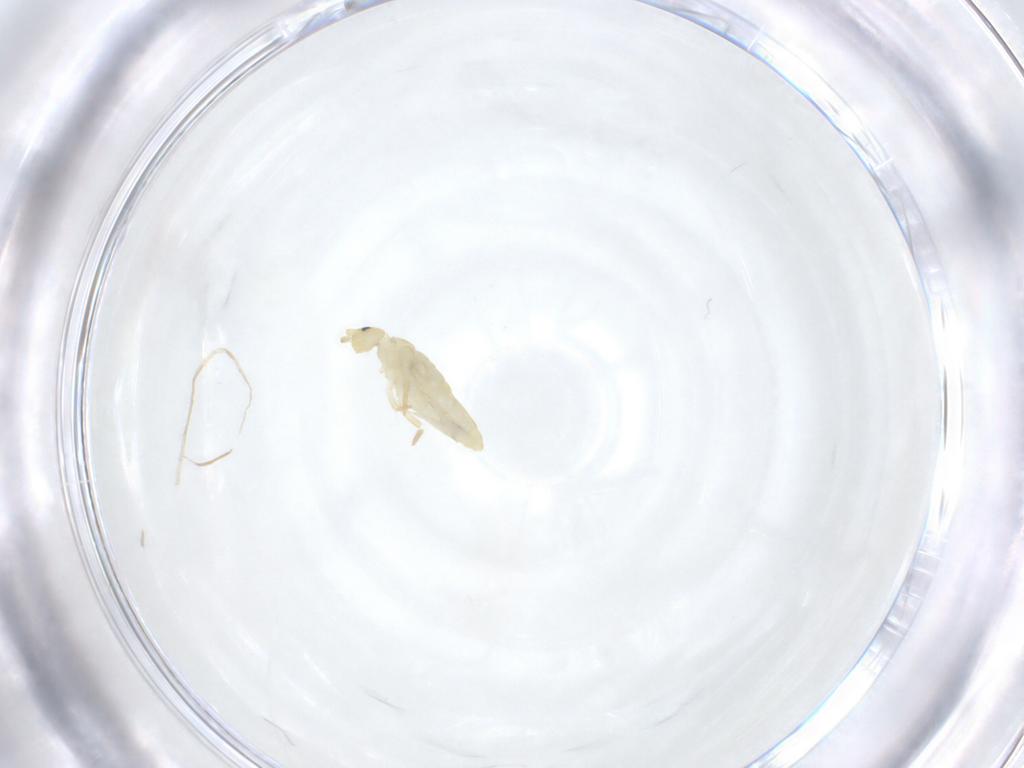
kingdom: Animalia
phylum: Arthropoda
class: Collembola
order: Entomobryomorpha
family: Entomobryidae
